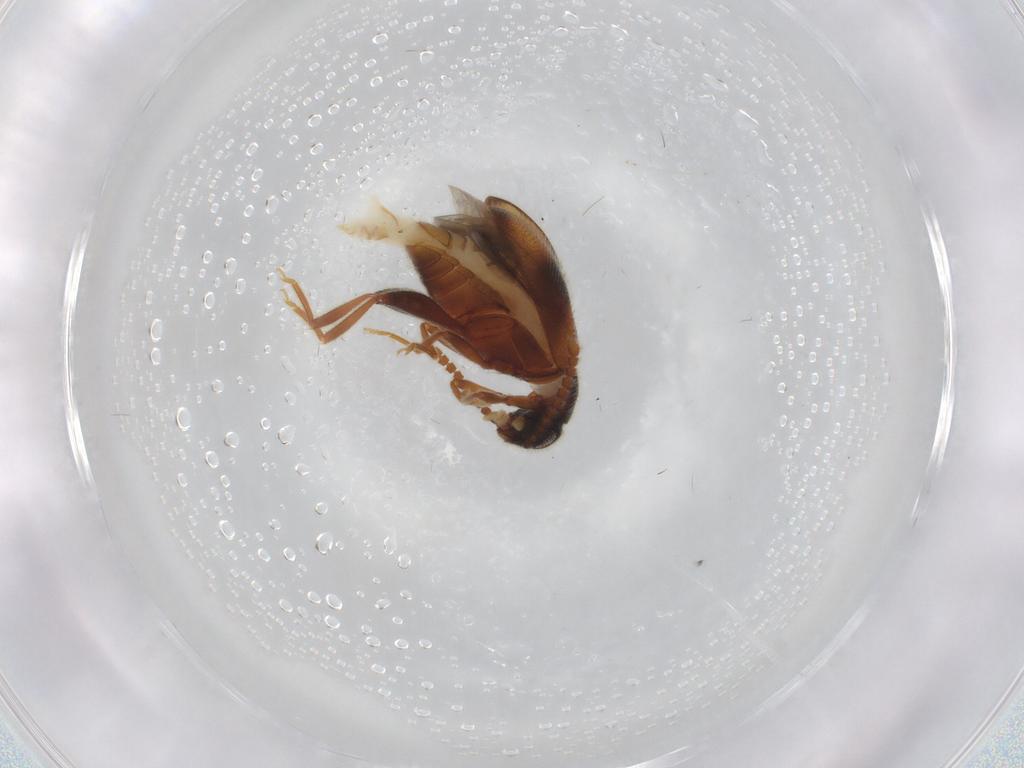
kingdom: Animalia
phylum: Arthropoda
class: Insecta
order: Coleoptera
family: Aderidae
